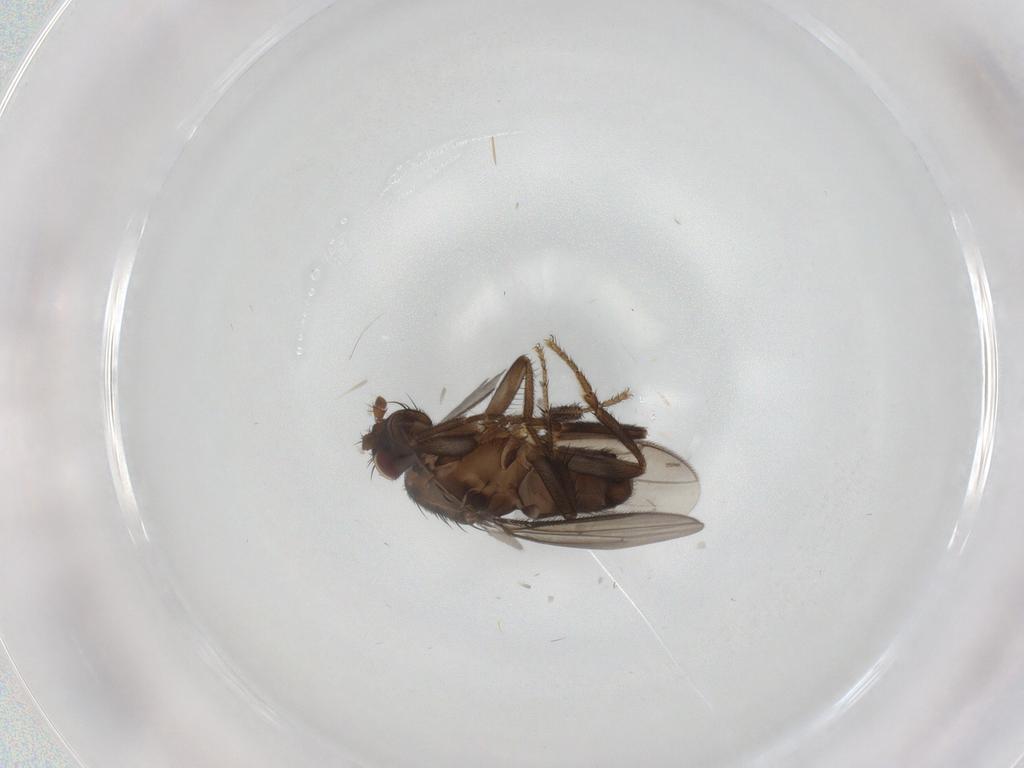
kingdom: Animalia
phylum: Arthropoda
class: Insecta
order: Diptera
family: Sphaeroceridae
